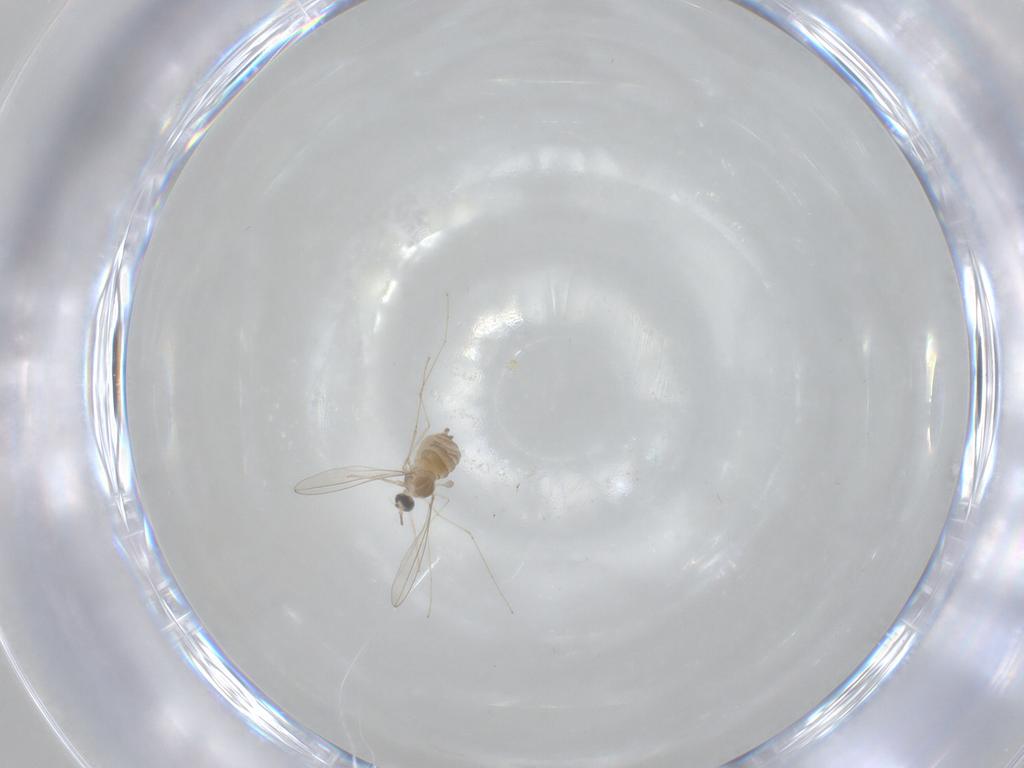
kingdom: Animalia
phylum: Arthropoda
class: Insecta
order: Diptera
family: Cecidomyiidae
